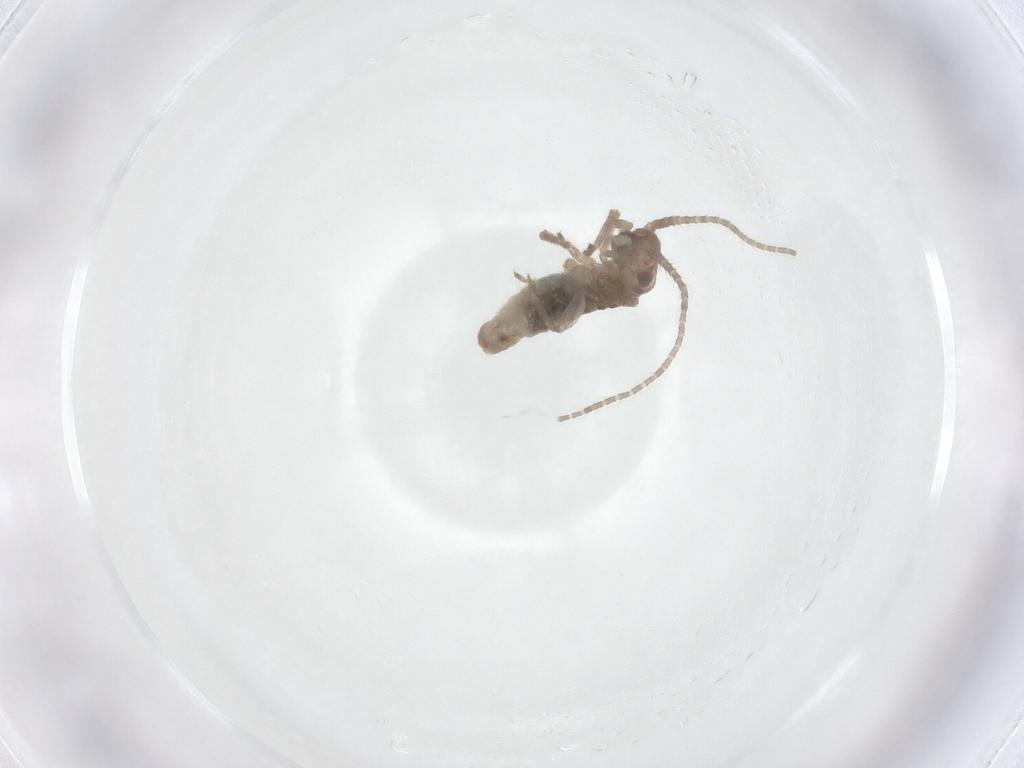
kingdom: Animalia
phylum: Arthropoda
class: Insecta
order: Orthoptera
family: Mogoplistidae
